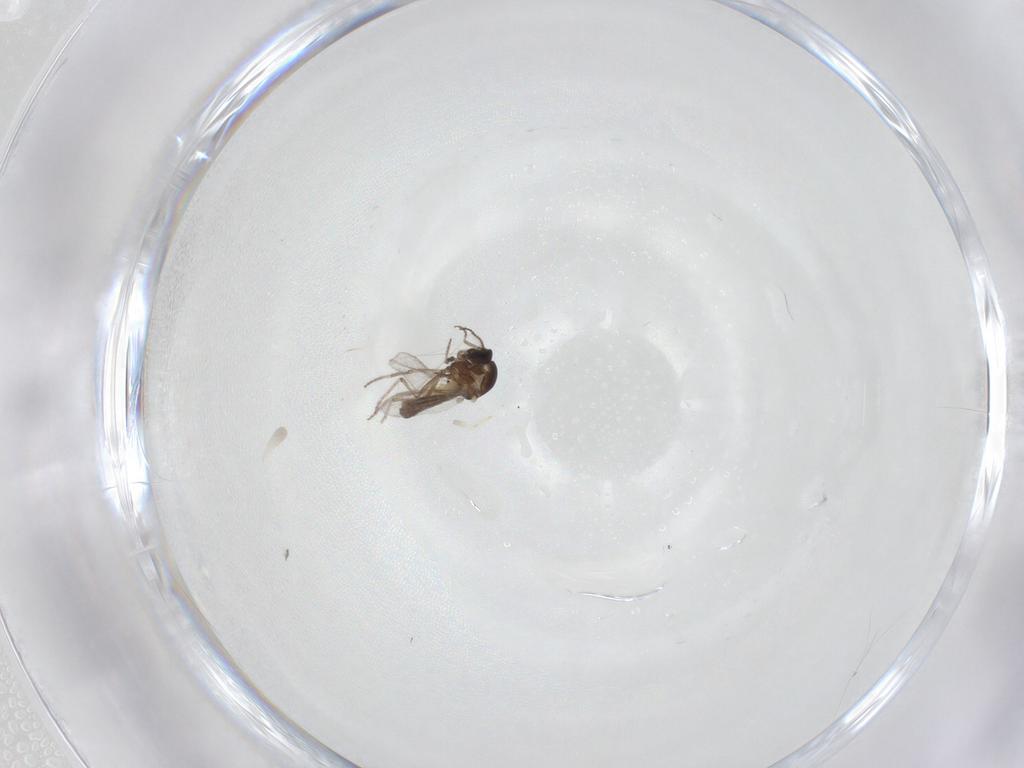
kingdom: Animalia
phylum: Arthropoda
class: Insecta
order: Diptera
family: Ceratopogonidae
